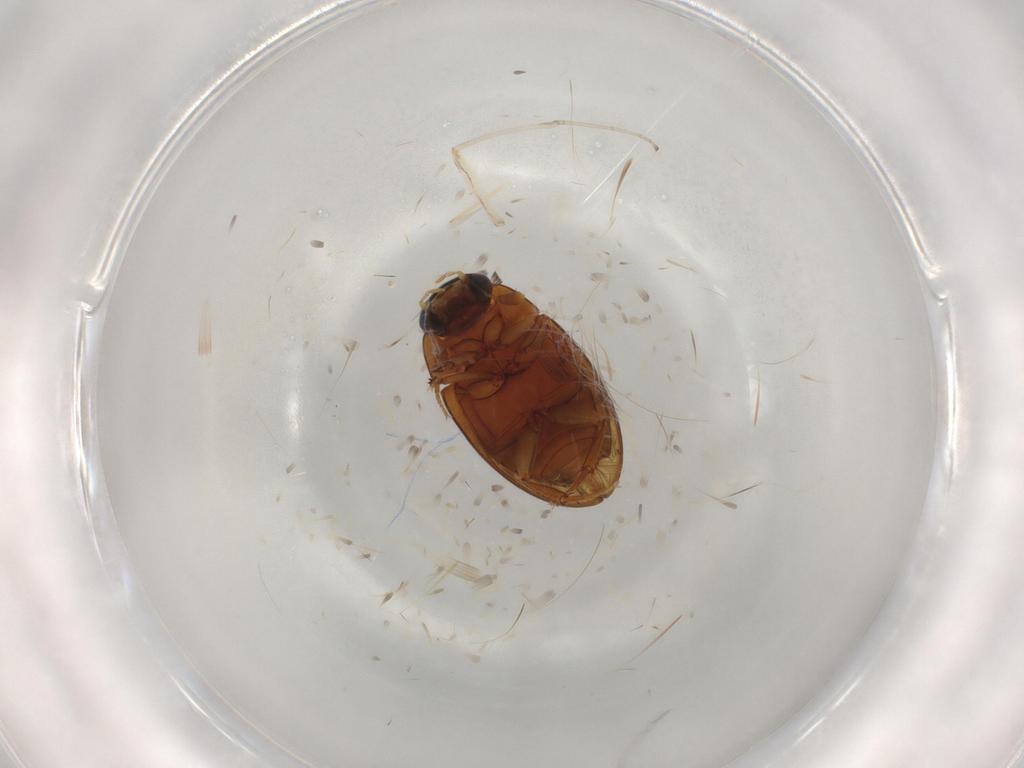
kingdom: Animalia
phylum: Arthropoda
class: Insecta
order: Coleoptera
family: Hydrophilidae
